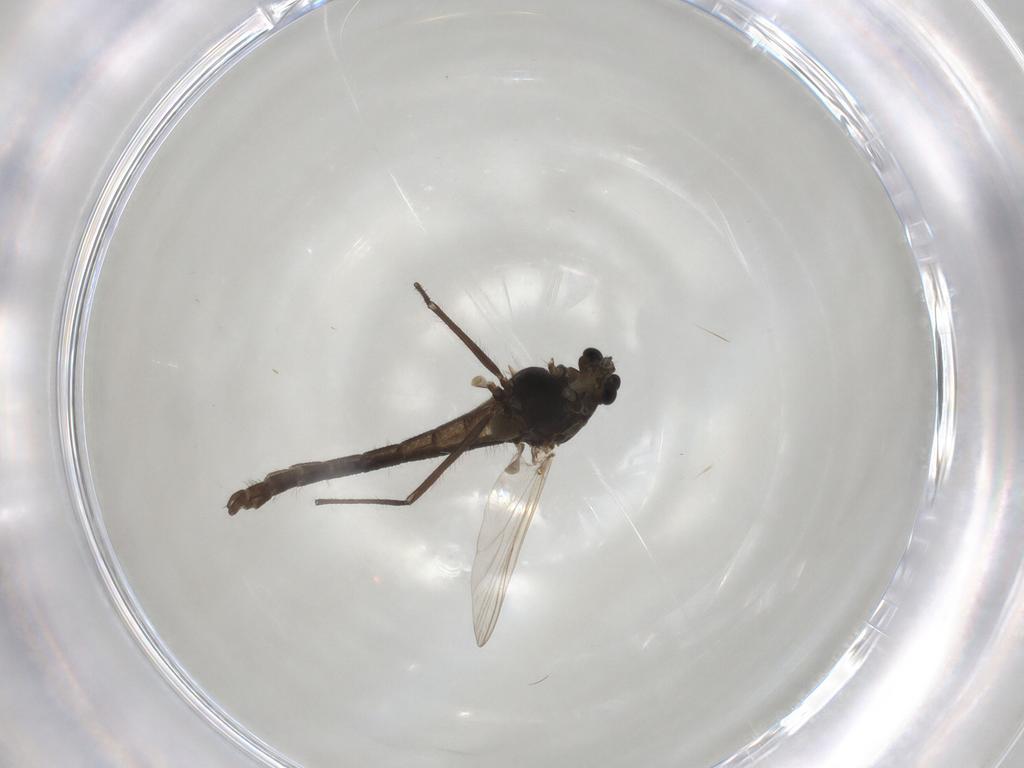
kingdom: Animalia
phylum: Arthropoda
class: Insecta
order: Diptera
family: Chironomidae
